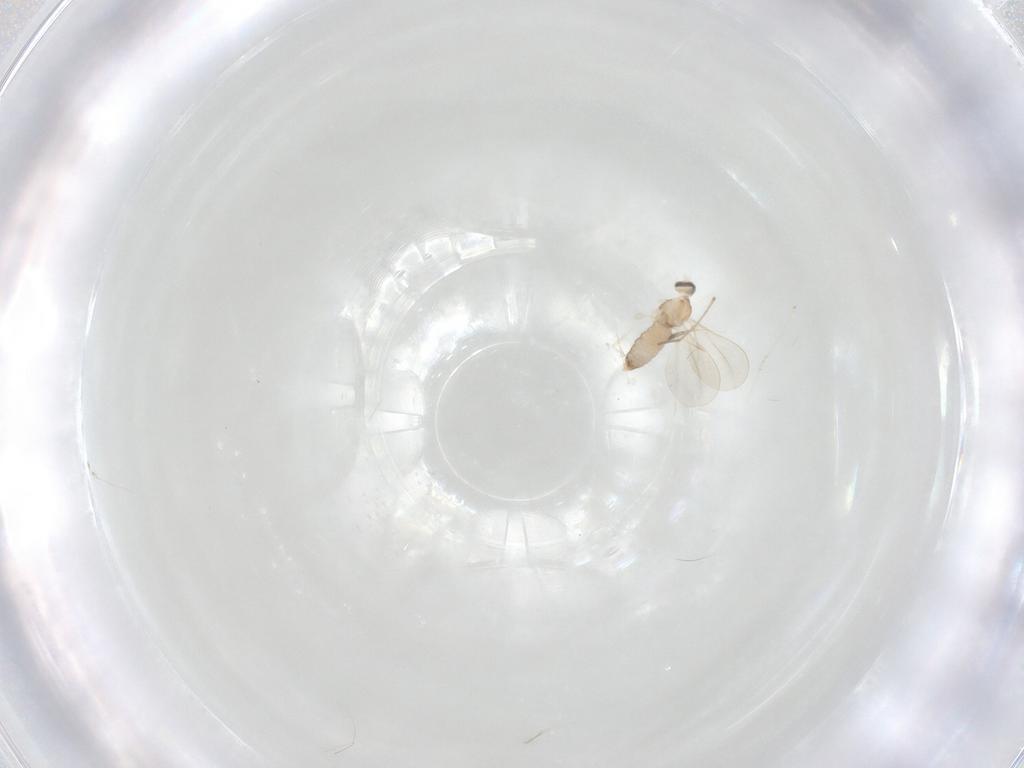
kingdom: Animalia
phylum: Arthropoda
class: Insecta
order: Diptera
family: Cecidomyiidae
